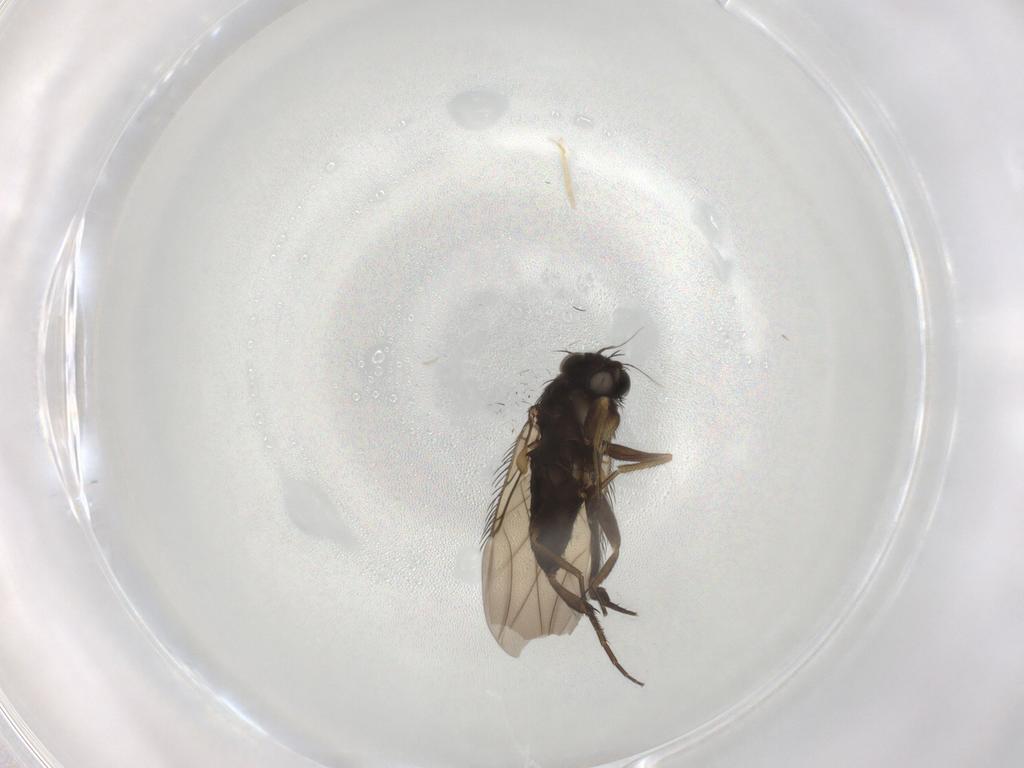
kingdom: Animalia
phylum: Arthropoda
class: Insecta
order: Diptera
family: Phoridae
